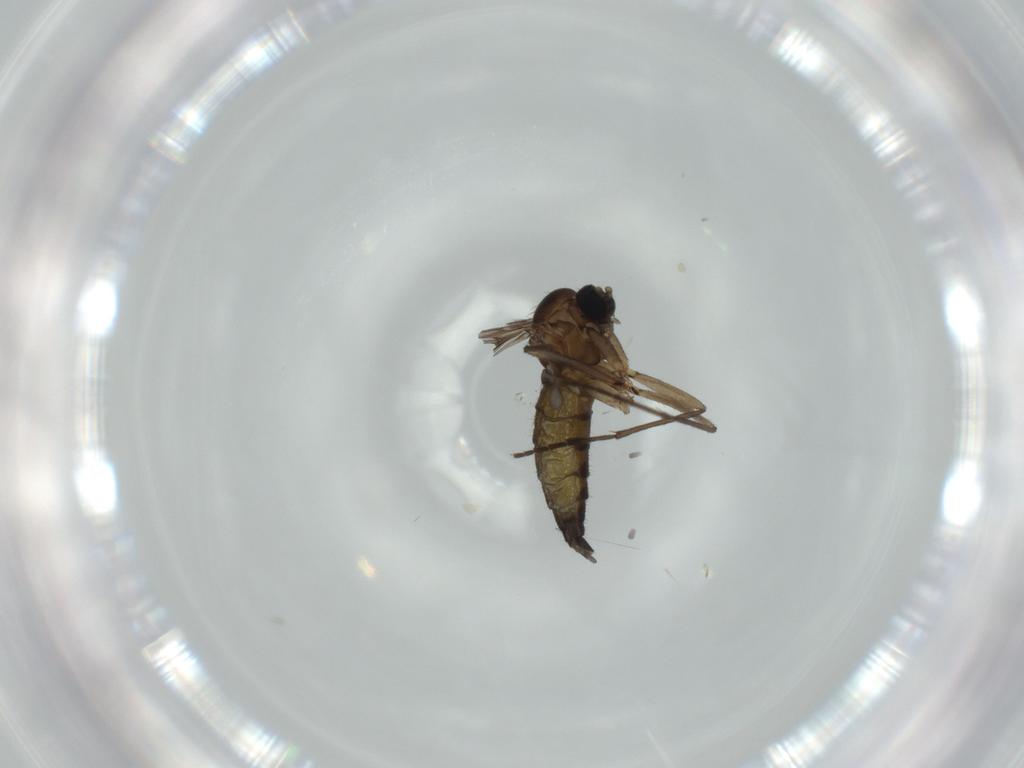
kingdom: Animalia
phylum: Arthropoda
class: Insecta
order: Diptera
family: Sciaridae
